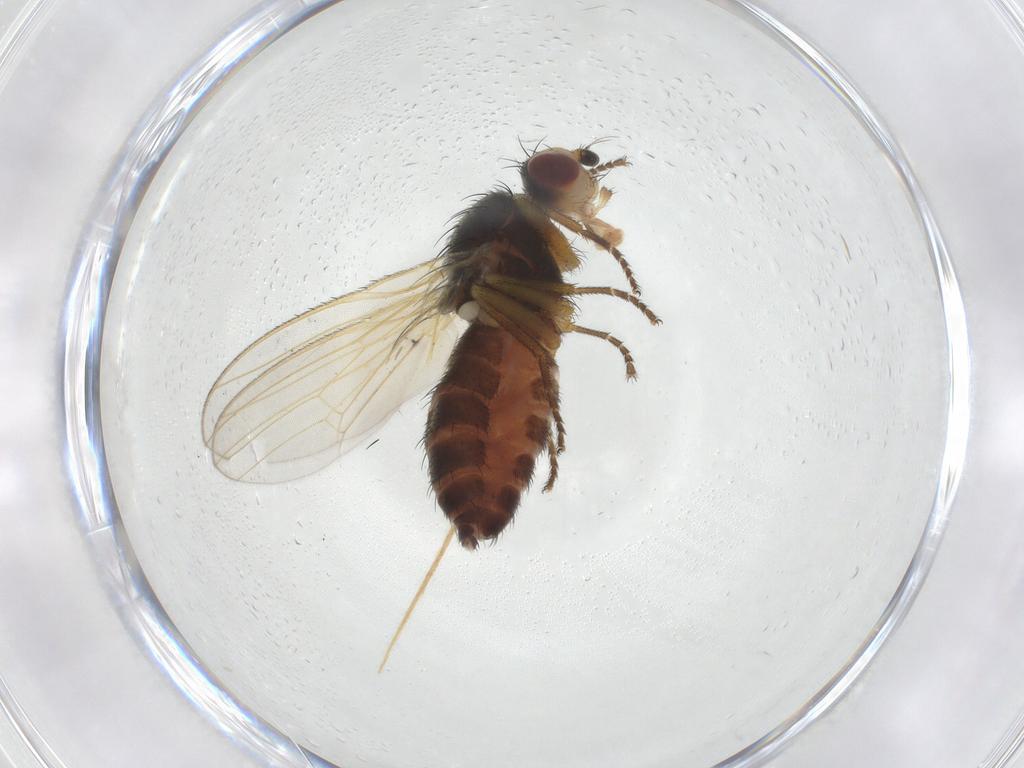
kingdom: Animalia
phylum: Arthropoda
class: Insecta
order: Diptera
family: Heleomyzidae
